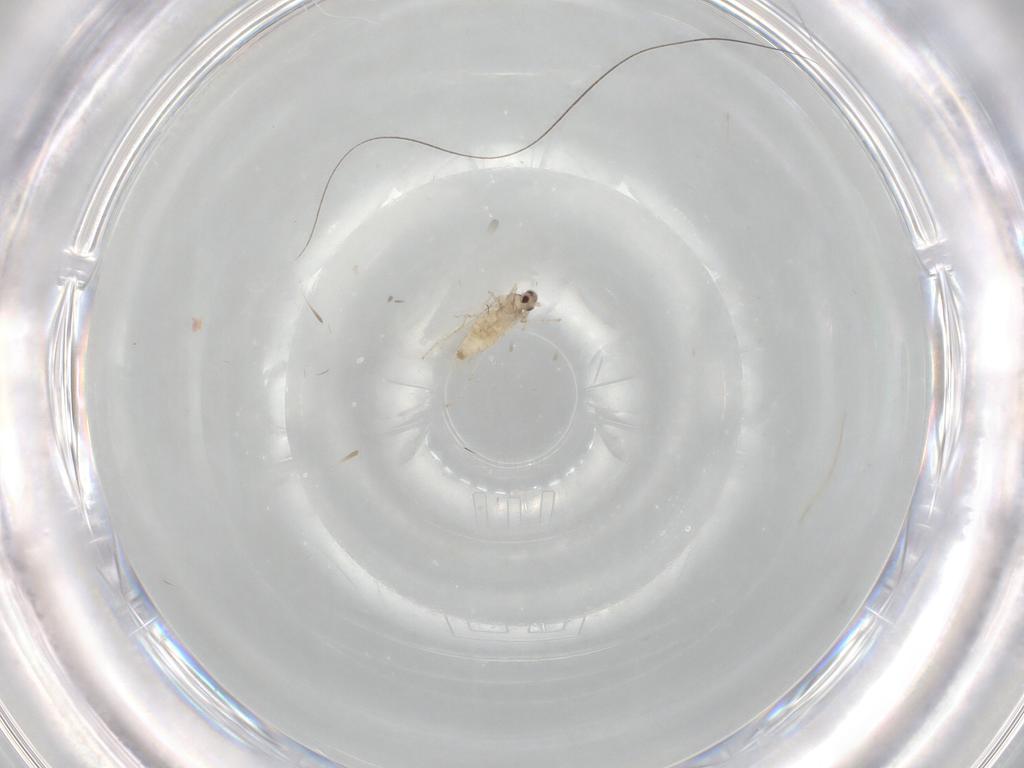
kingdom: Animalia
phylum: Arthropoda
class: Insecta
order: Diptera
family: Cecidomyiidae
